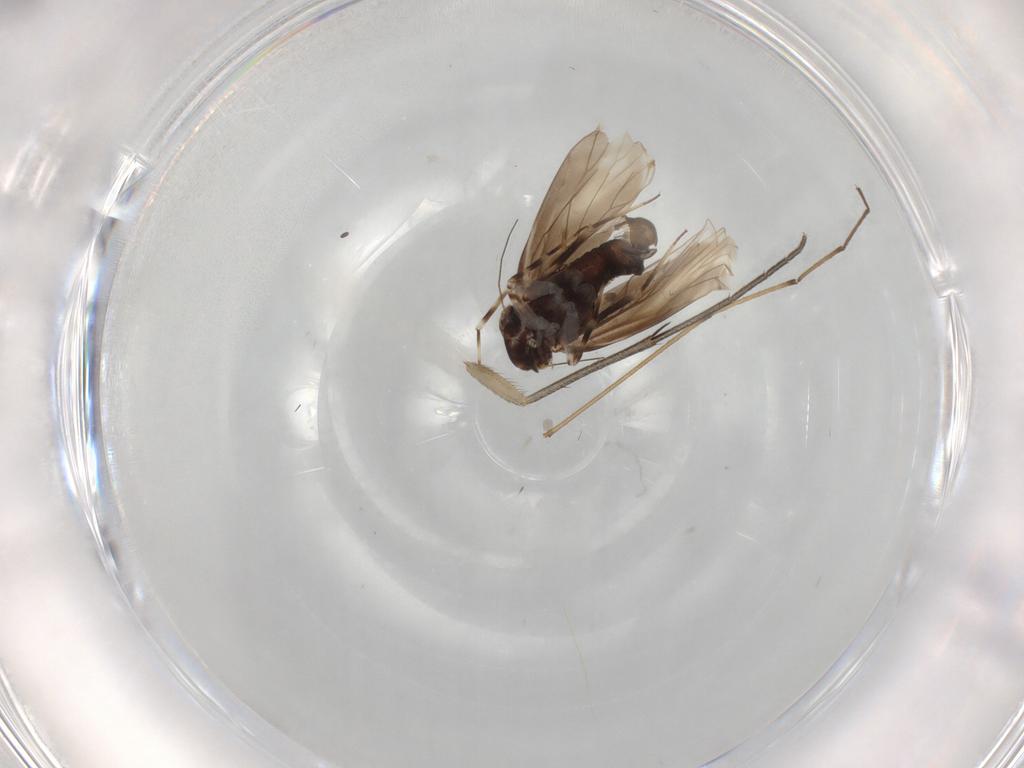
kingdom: Animalia
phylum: Arthropoda
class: Insecta
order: Psocodea
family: Amphientomidae
